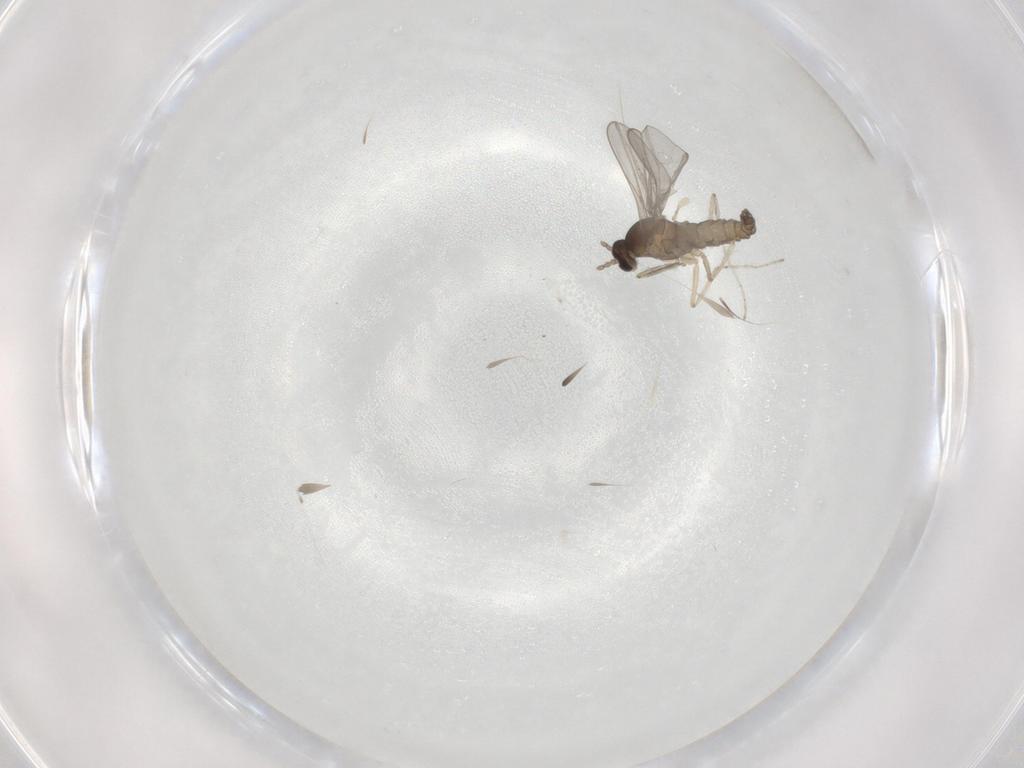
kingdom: Animalia
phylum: Arthropoda
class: Insecta
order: Diptera
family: Cecidomyiidae
